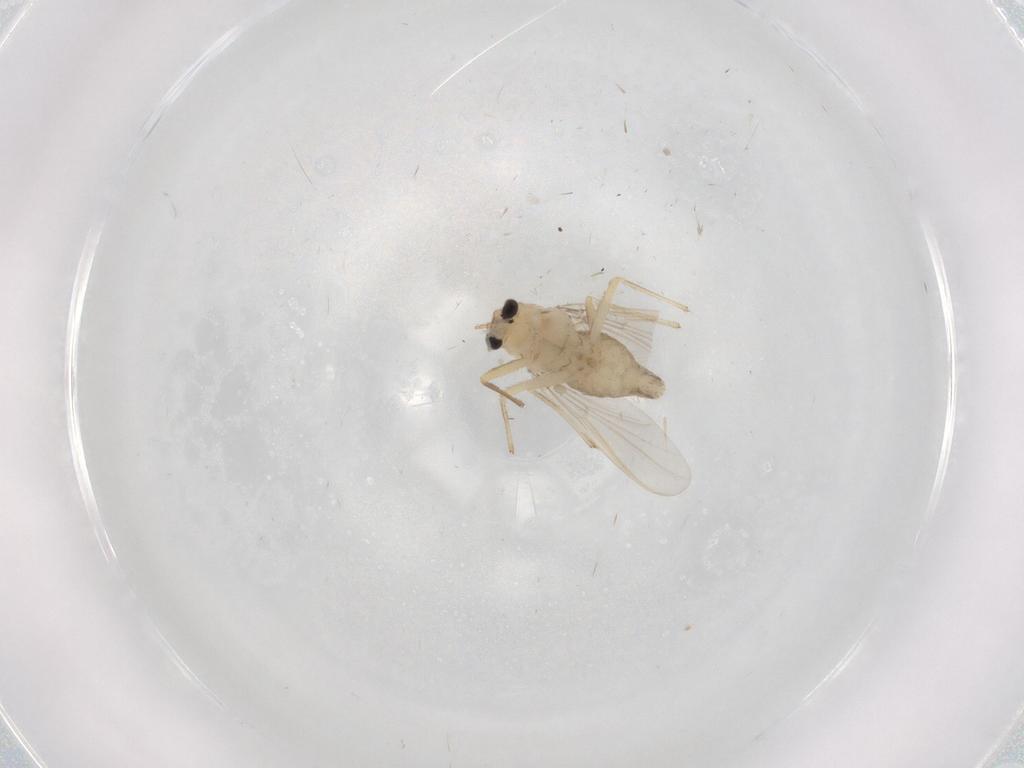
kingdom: Animalia
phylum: Arthropoda
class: Insecta
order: Diptera
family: Chironomidae
